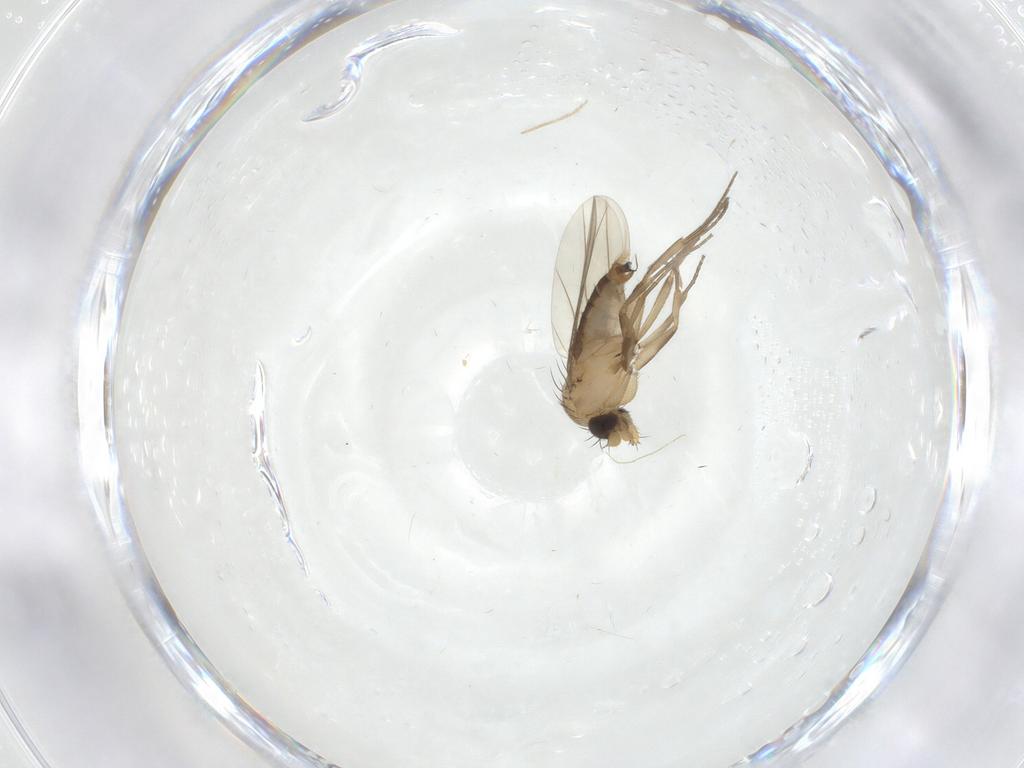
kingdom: Animalia
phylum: Arthropoda
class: Insecta
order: Diptera
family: Chironomidae
